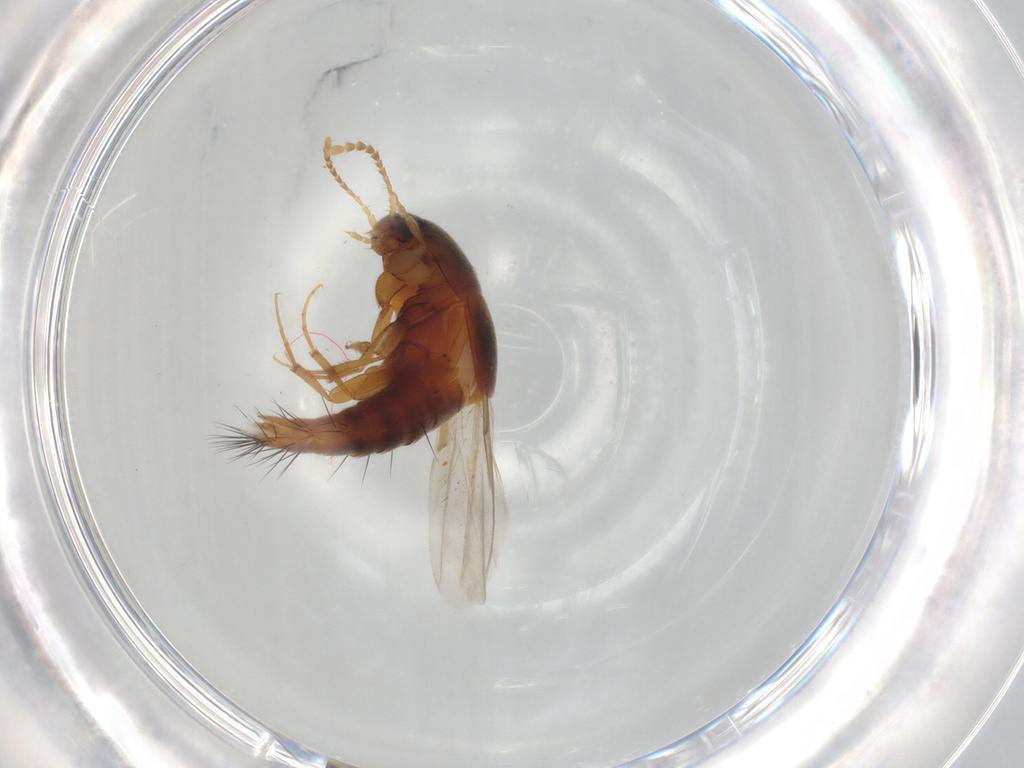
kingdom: Animalia
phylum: Arthropoda
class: Insecta
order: Coleoptera
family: Staphylinidae
